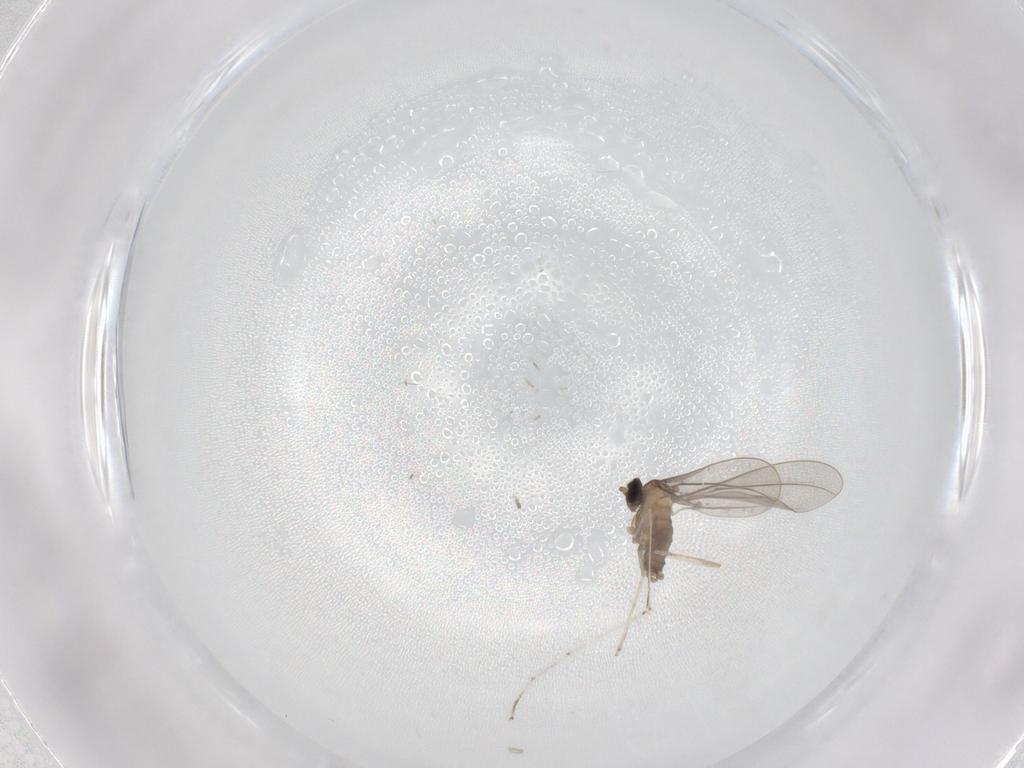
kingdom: Animalia
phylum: Arthropoda
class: Insecta
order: Diptera
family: Cecidomyiidae
